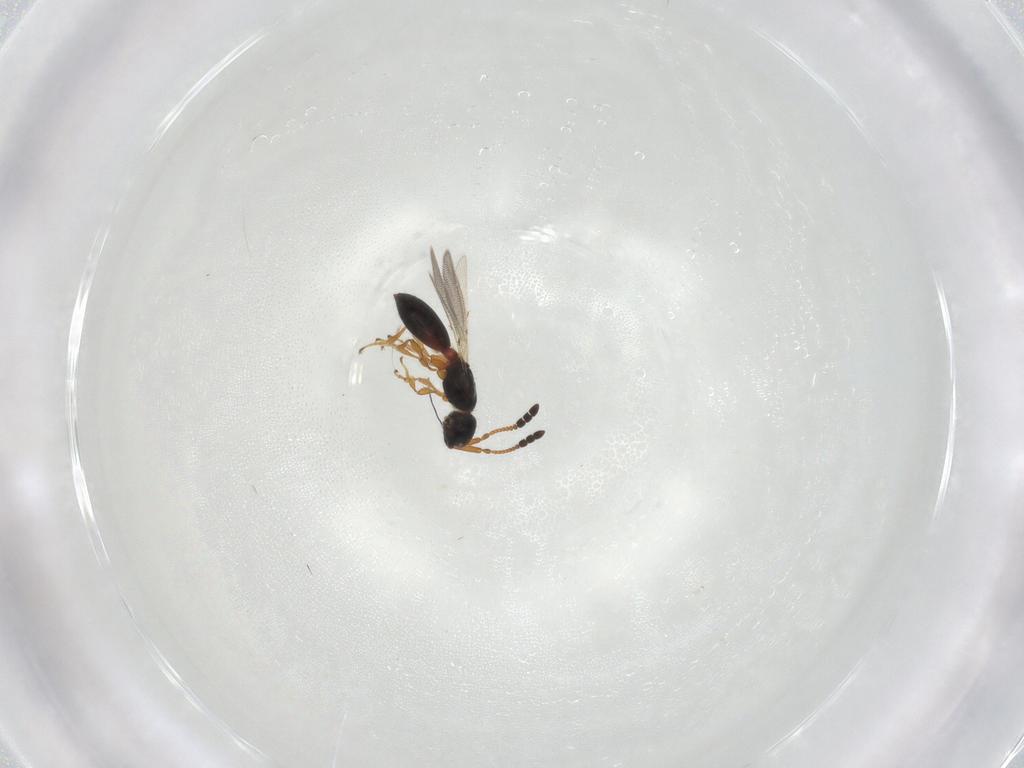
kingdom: Animalia
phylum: Arthropoda
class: Insecta
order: Hymenoptera
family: Diapriidae
